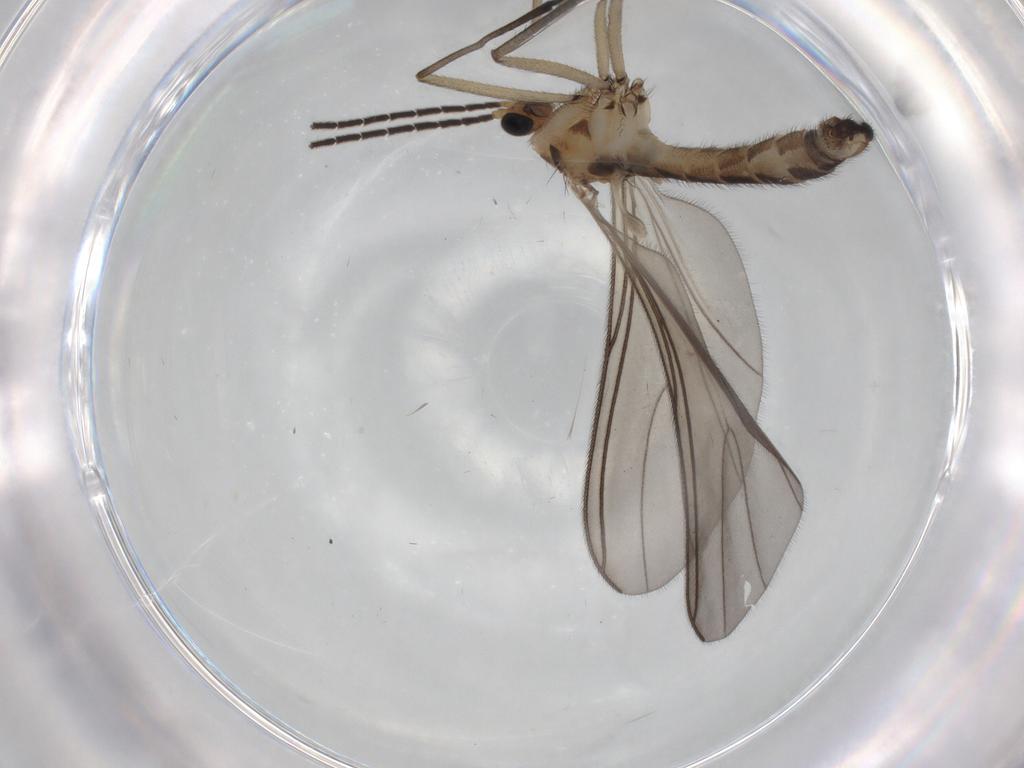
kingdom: Animalia
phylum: Arthropoda
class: Insecta
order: Diptera
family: Sciaridae
